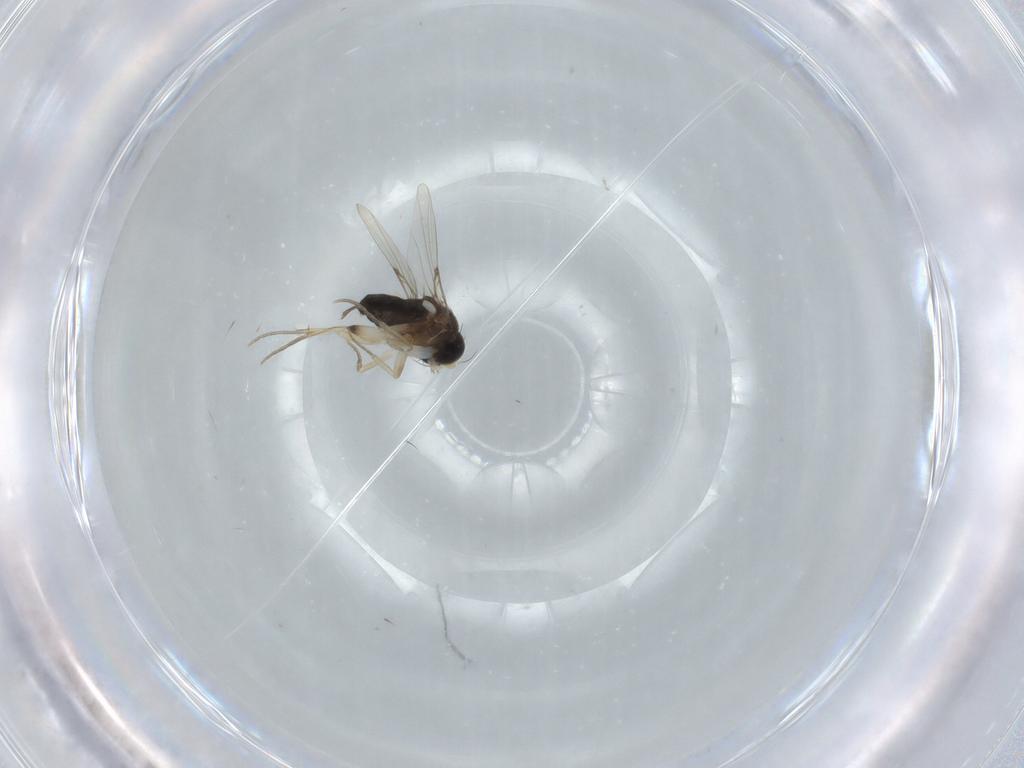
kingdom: Animalia
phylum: Arthropoda
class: Insecta
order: Diptera
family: Phoridae
